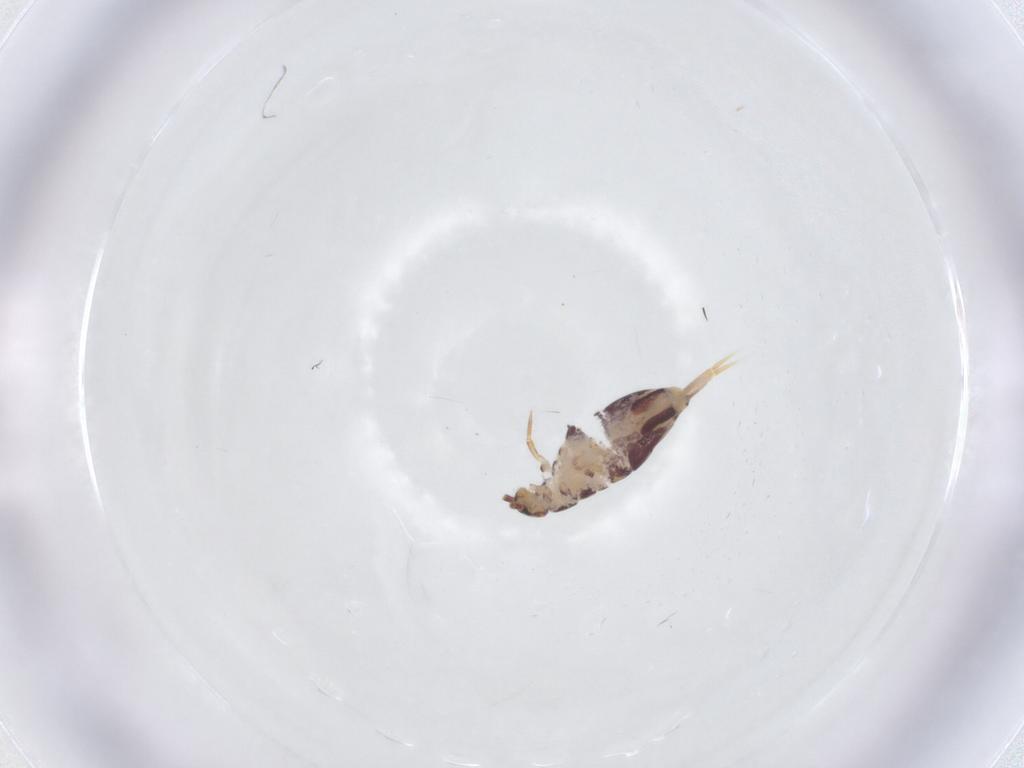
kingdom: Animalia
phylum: Arthropoda
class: Collembola
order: Entomobryomorpha
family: Entomobryidae
